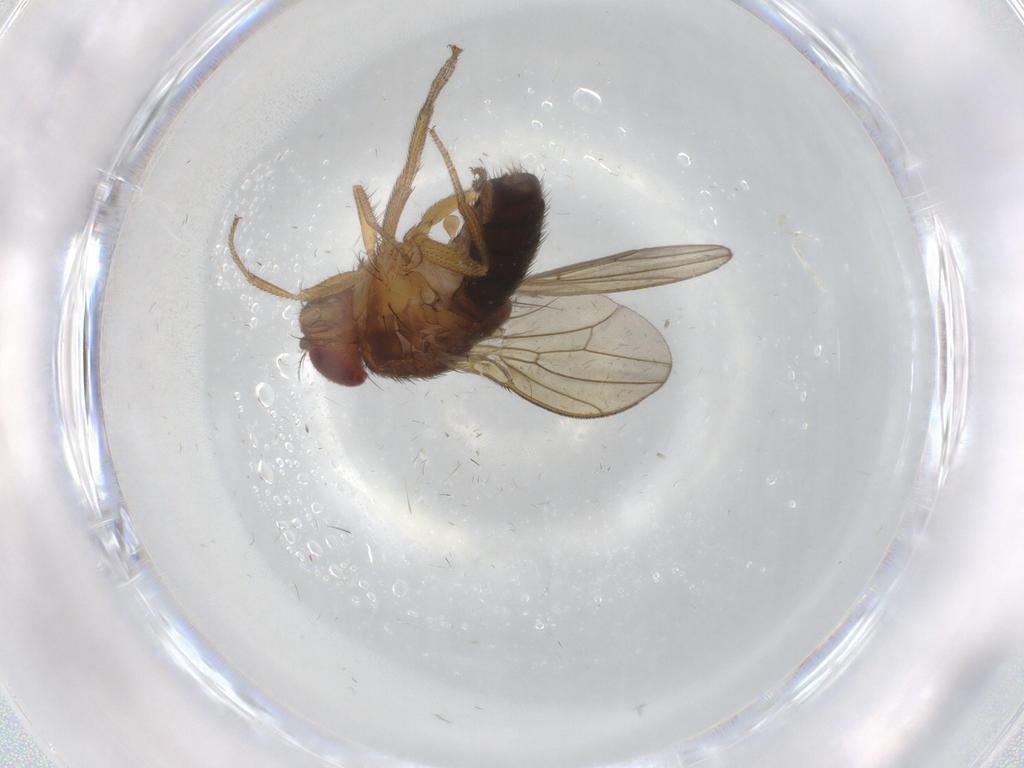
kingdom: Animalia
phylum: Arthropoda
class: Insecta
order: Diptera
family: Drosophilidae
